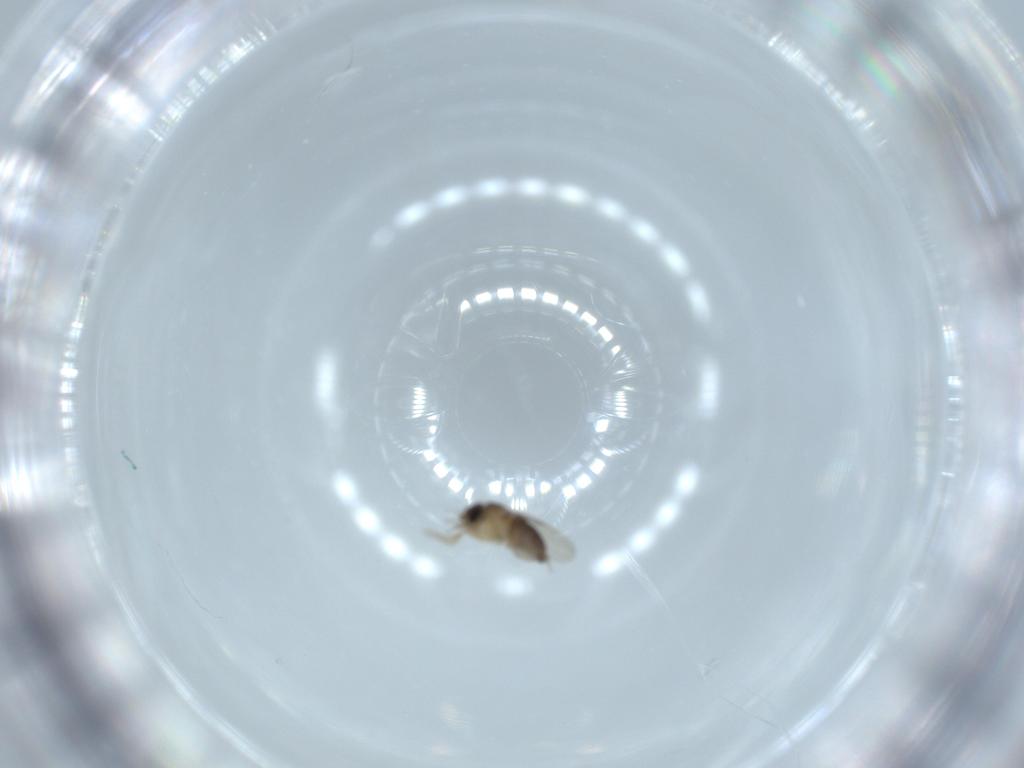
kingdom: Animalia
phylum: Arthropoda
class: Insecta
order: Diptera
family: Phoridae
